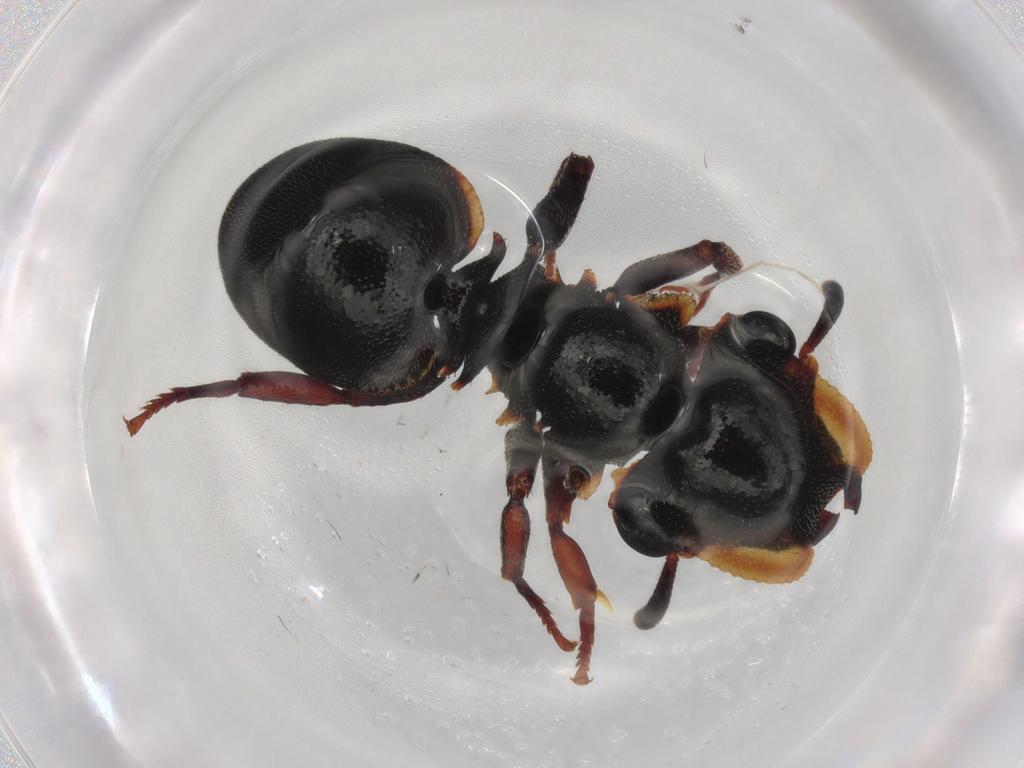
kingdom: Animalia
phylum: Arthropoda
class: Insecta
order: Hymenoptera
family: Formicidae
